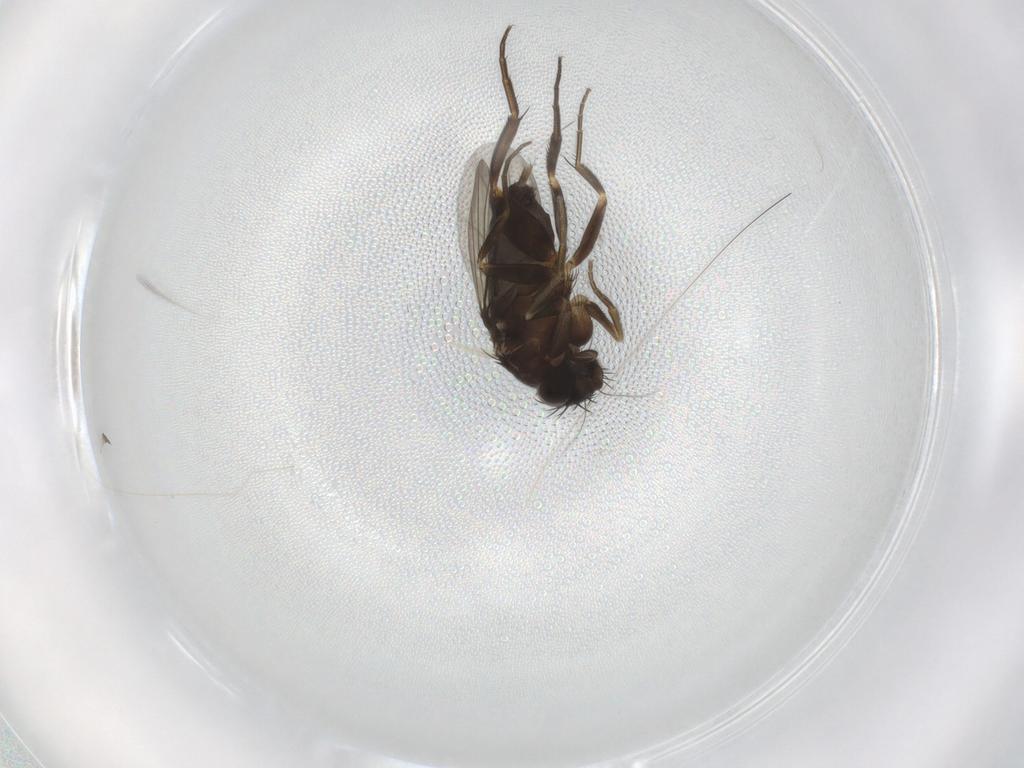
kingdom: Animalia
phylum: Arthropoda
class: Insecta
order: Diptera
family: Phoridae
